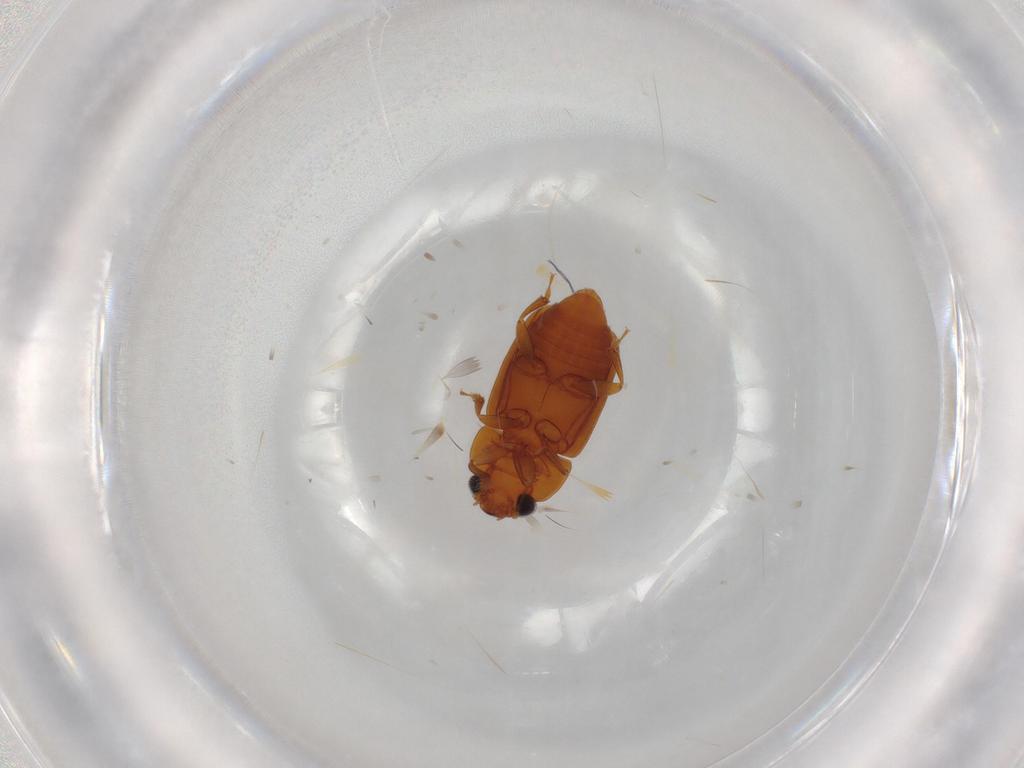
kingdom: Animalia
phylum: Arthropoda
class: Insecta
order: Coleoptera
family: Nitidulidae
